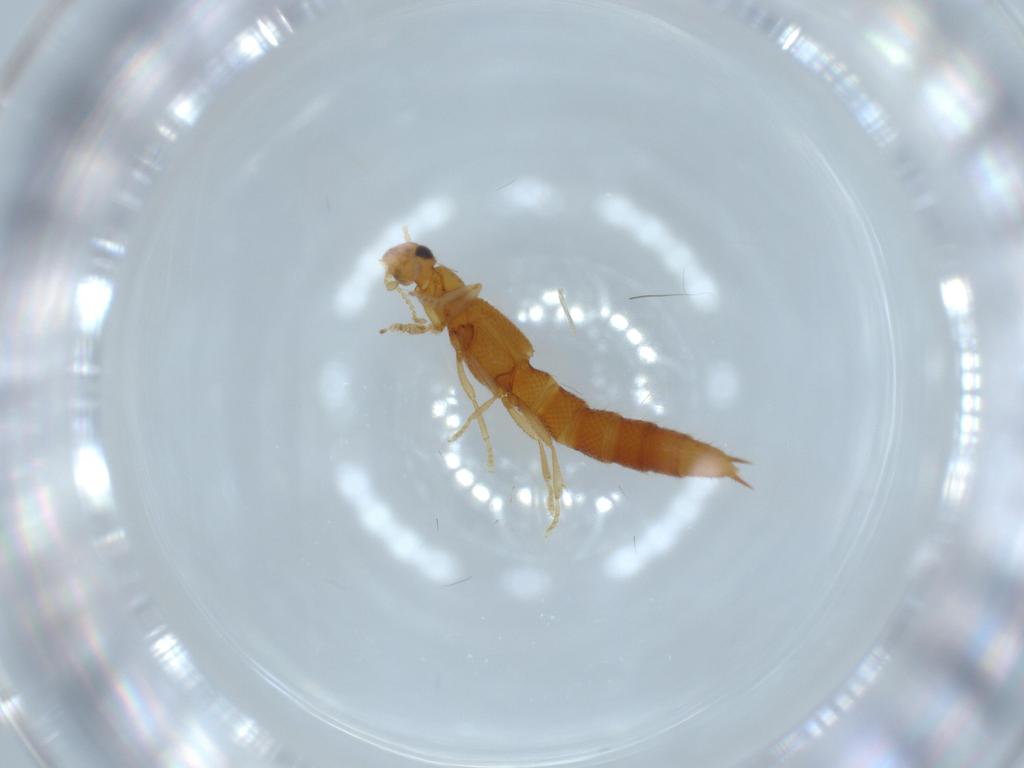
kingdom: Animalia
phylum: Arthropoda
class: Insecta
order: Coleoptera
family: Staphylinidae
